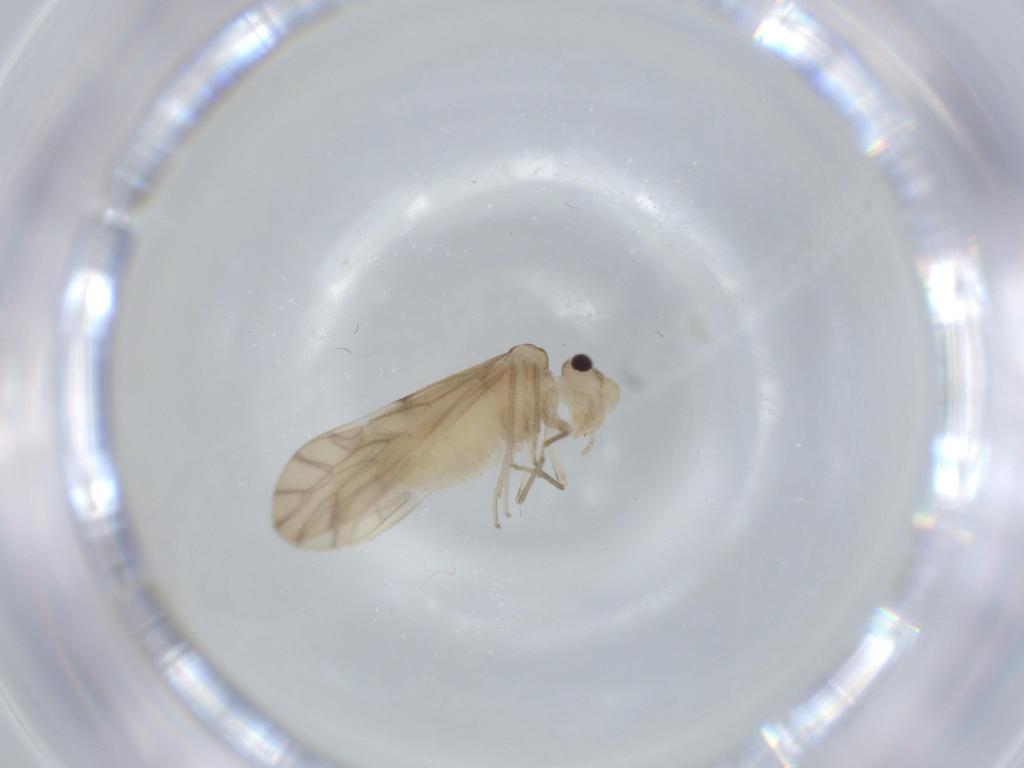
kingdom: Animalia
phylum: Arthropoda
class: Insecta
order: Psocodea
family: Caeciliusidae
